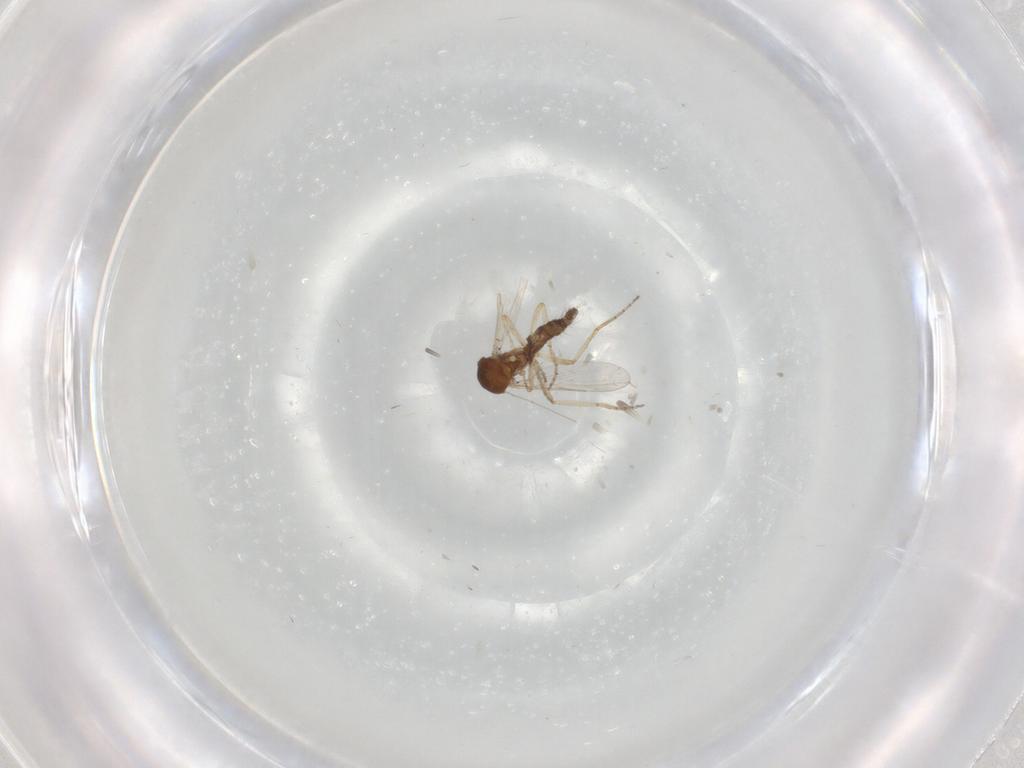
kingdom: Animalia
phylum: Arthropoda
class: Insecta
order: Diptera
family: Ceratopogonidae
